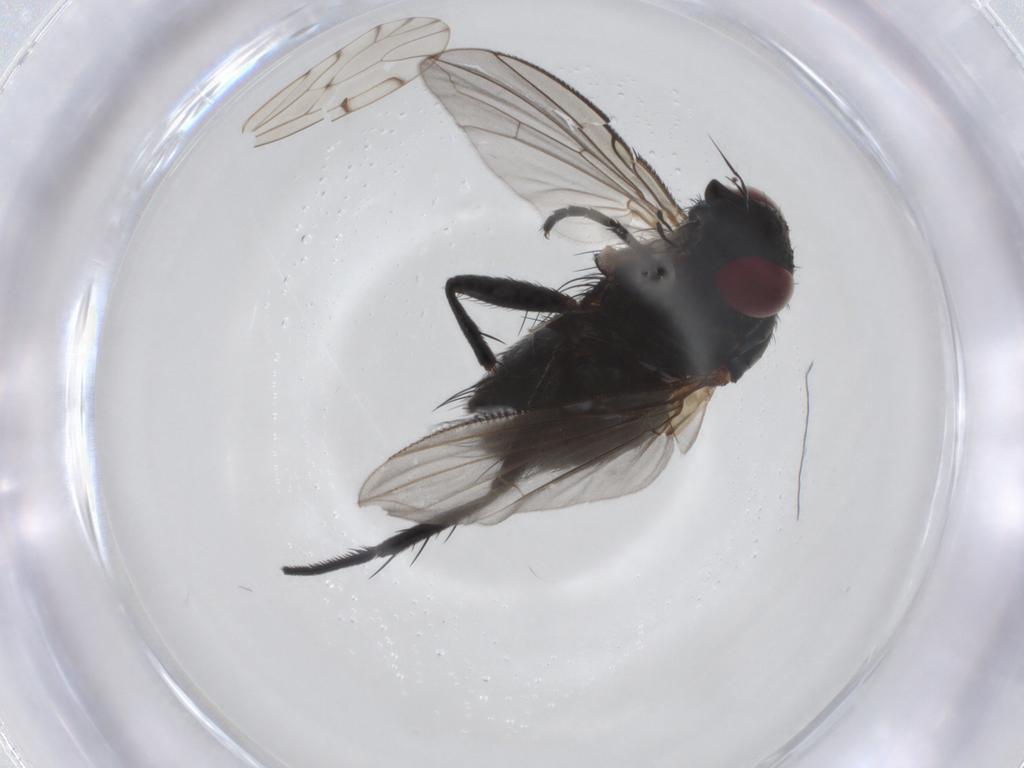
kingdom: Animalia
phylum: Arthropoda
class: Insecta
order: Diptera
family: Tachinidae
